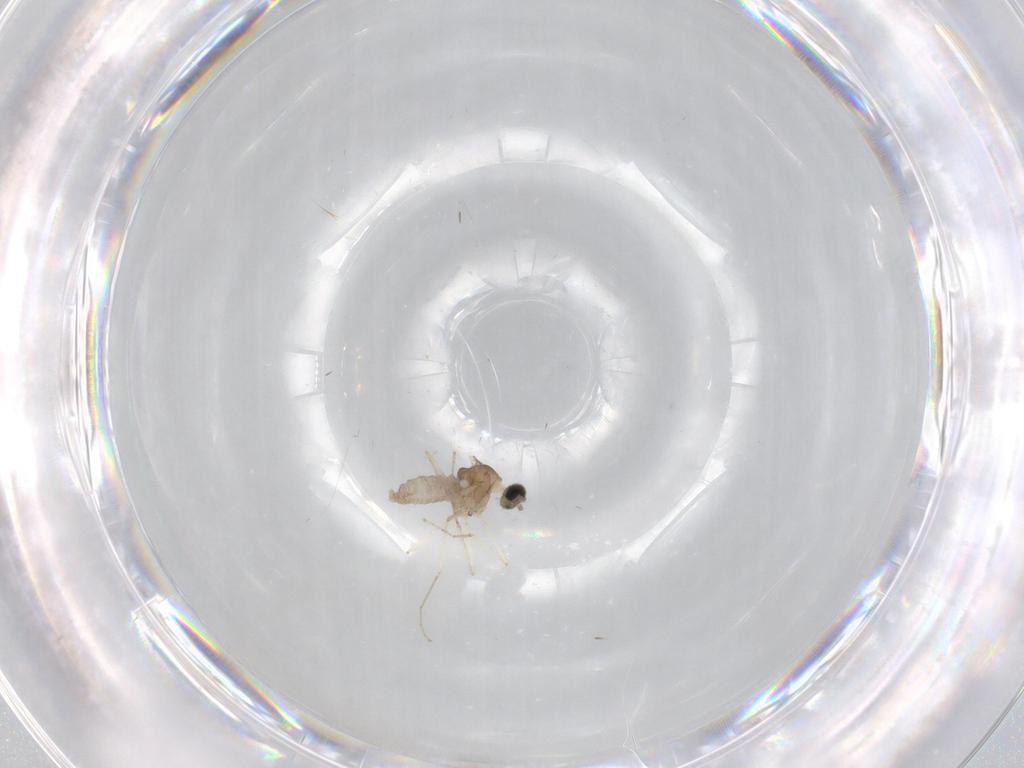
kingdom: Animalia
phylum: Arthropoda
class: Insecta
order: Diptera
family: Cecidomyiidae
